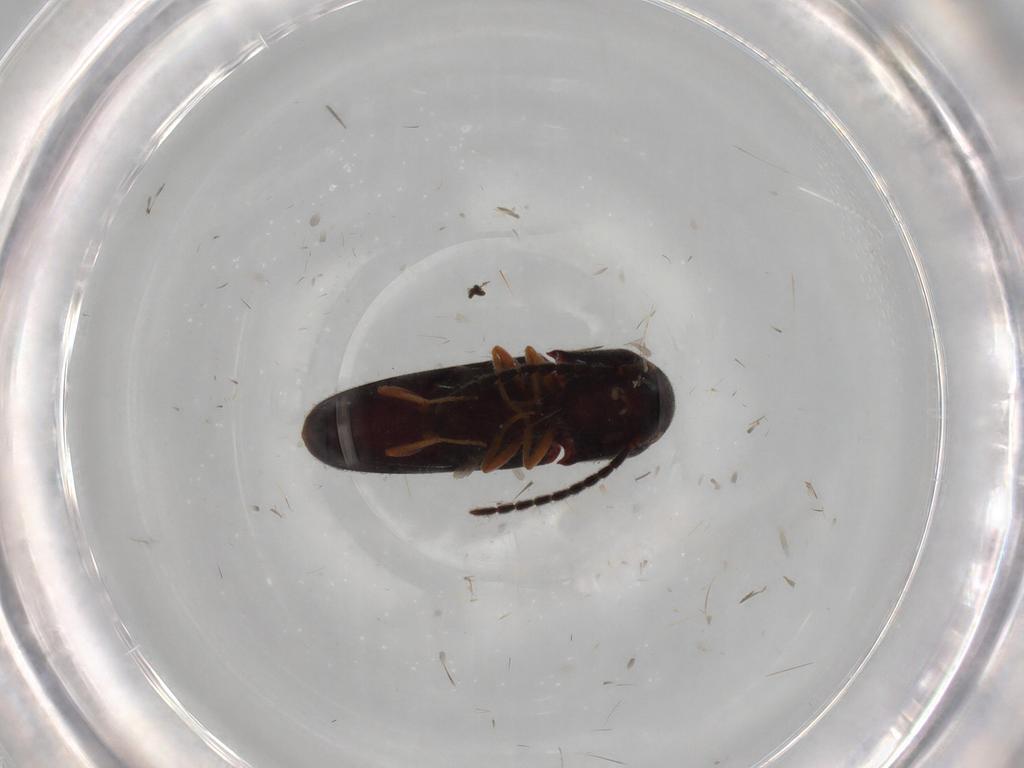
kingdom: Animalia
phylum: Arthropoda
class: Insecta
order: Coleoptera
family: Eucnemidae
